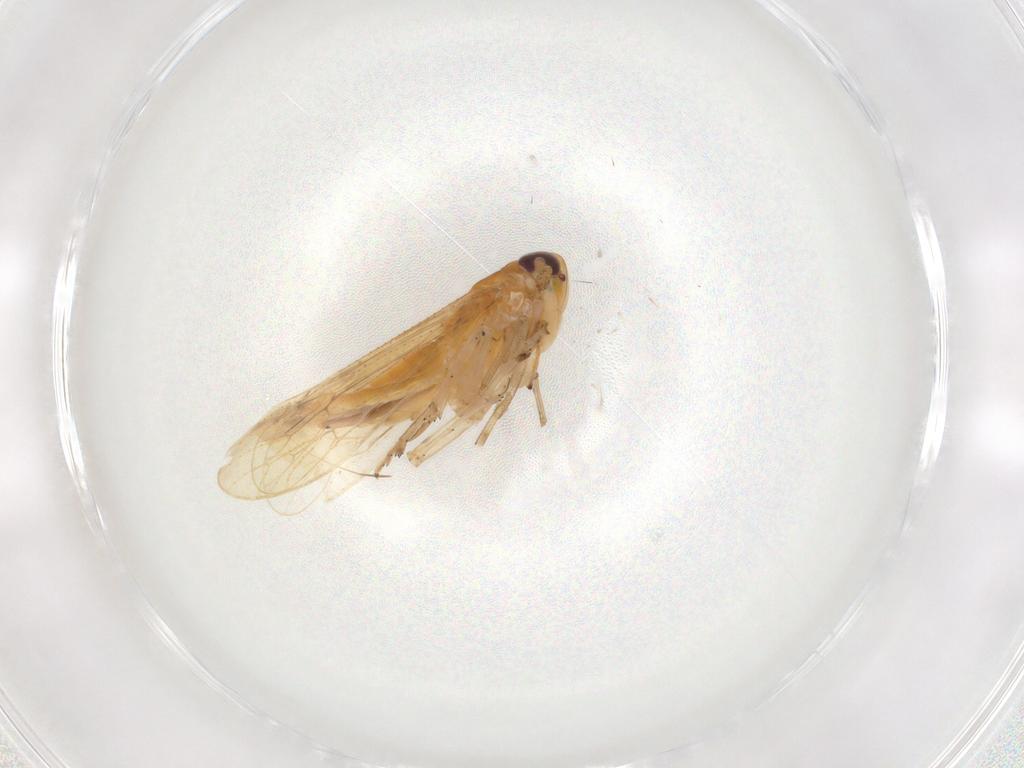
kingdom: Animalia
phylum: Arthropoda
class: Insecta
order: Hemiptera
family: Delphacidae
